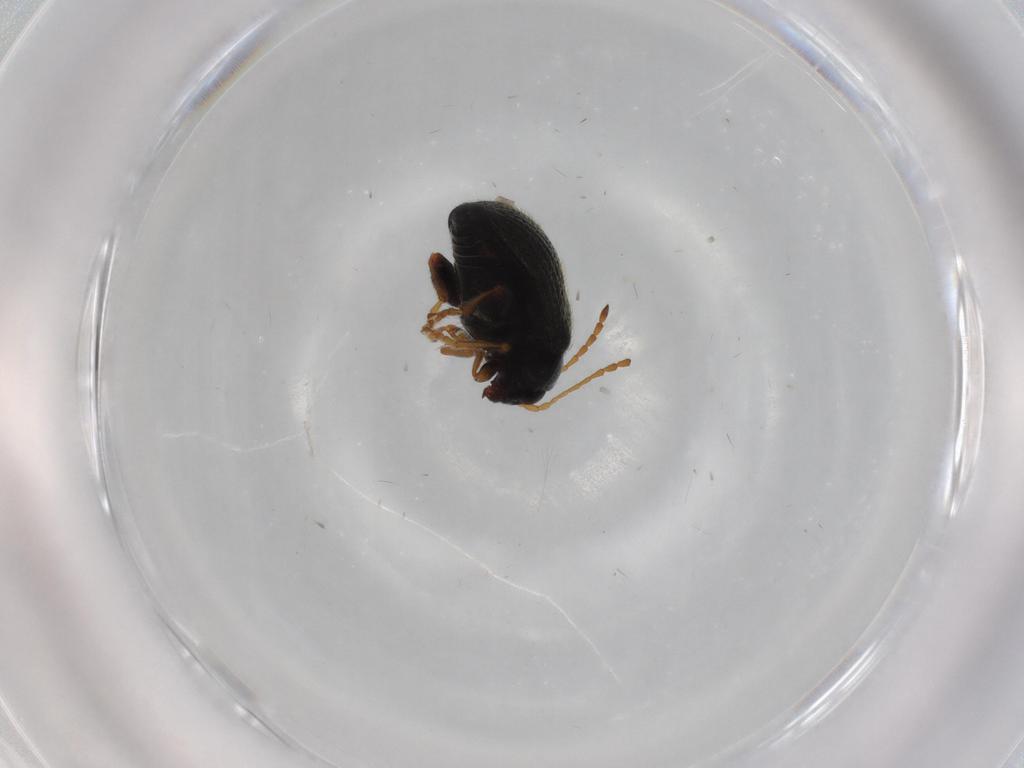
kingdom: Animalia
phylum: Arthropoda
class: Insecta
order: Coleoptera
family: Chrysomelidae
